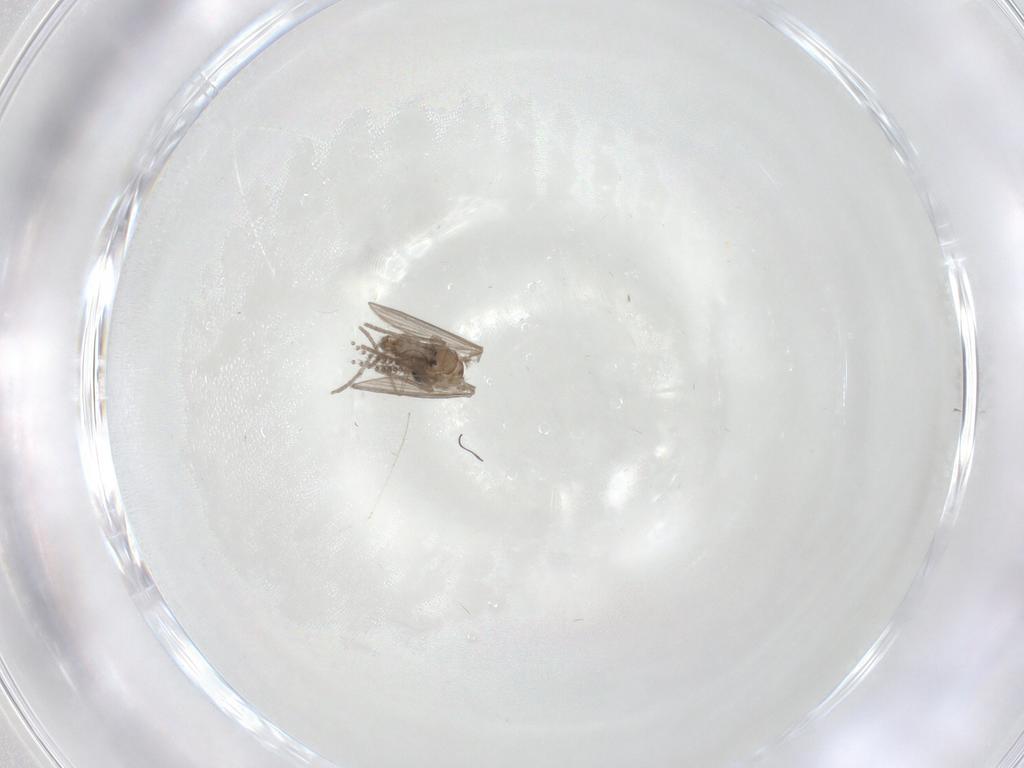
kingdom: Animalia
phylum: Arthropoda
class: Insecta
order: Diptera
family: Psychodidae
